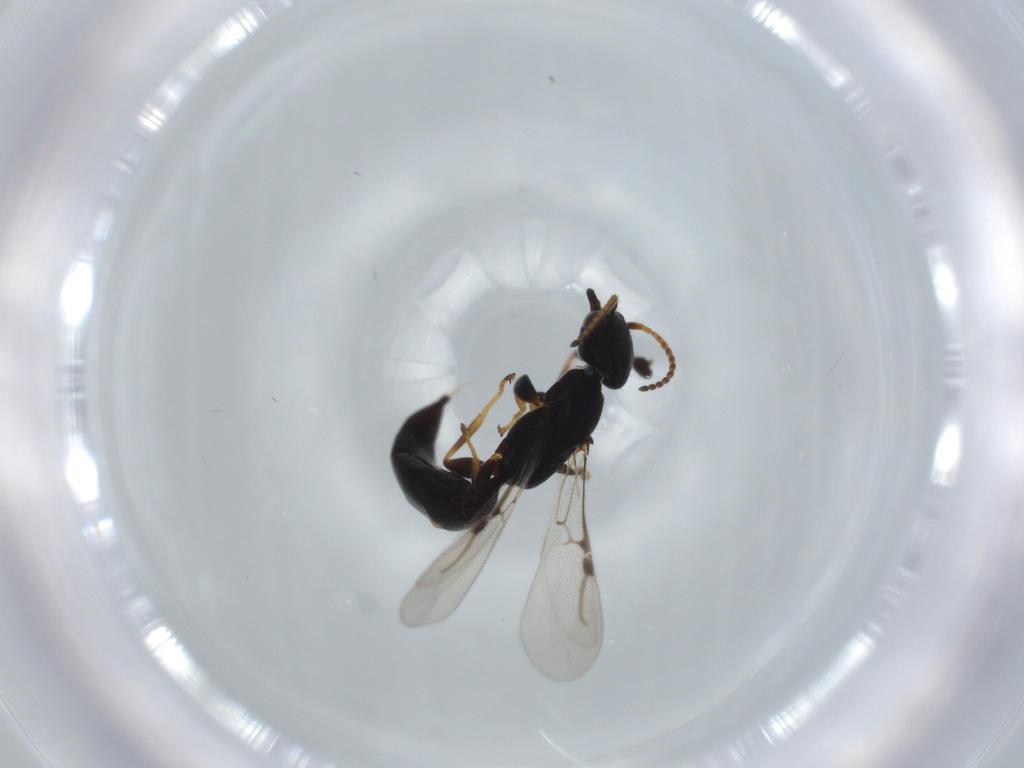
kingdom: Animalia
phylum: Arthropoda
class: Insecta
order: Hymenoptera
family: Bethylidae
